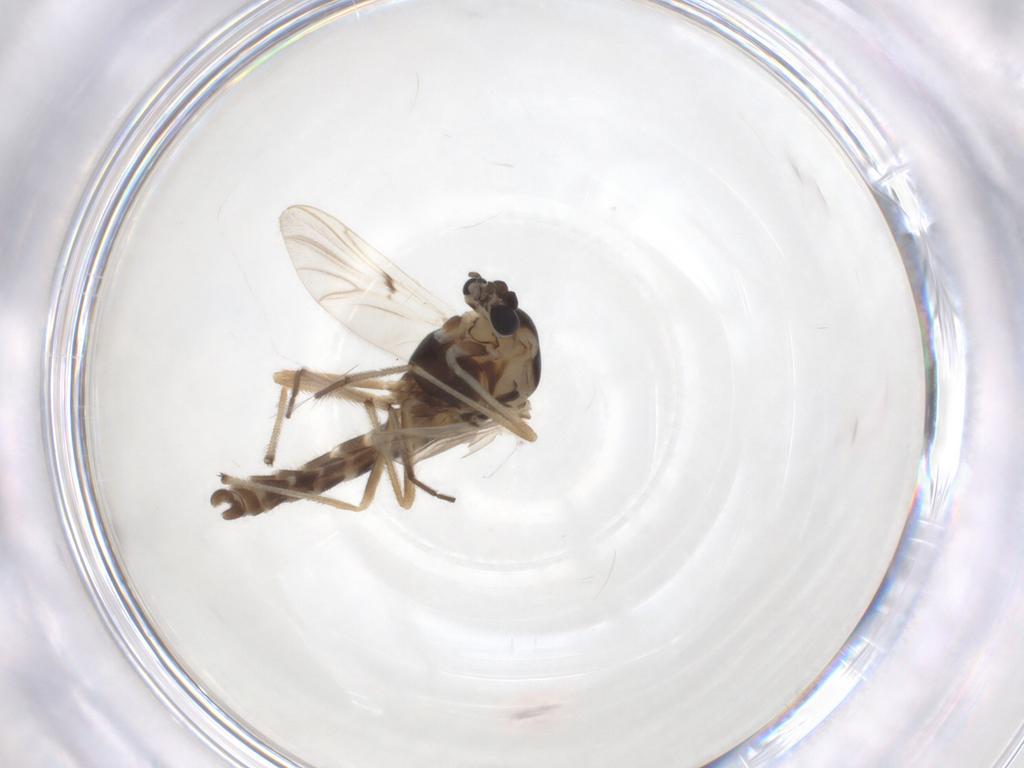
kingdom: Animalia
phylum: Arthropoda
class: Insecta
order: Diptera
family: Chironomidae
